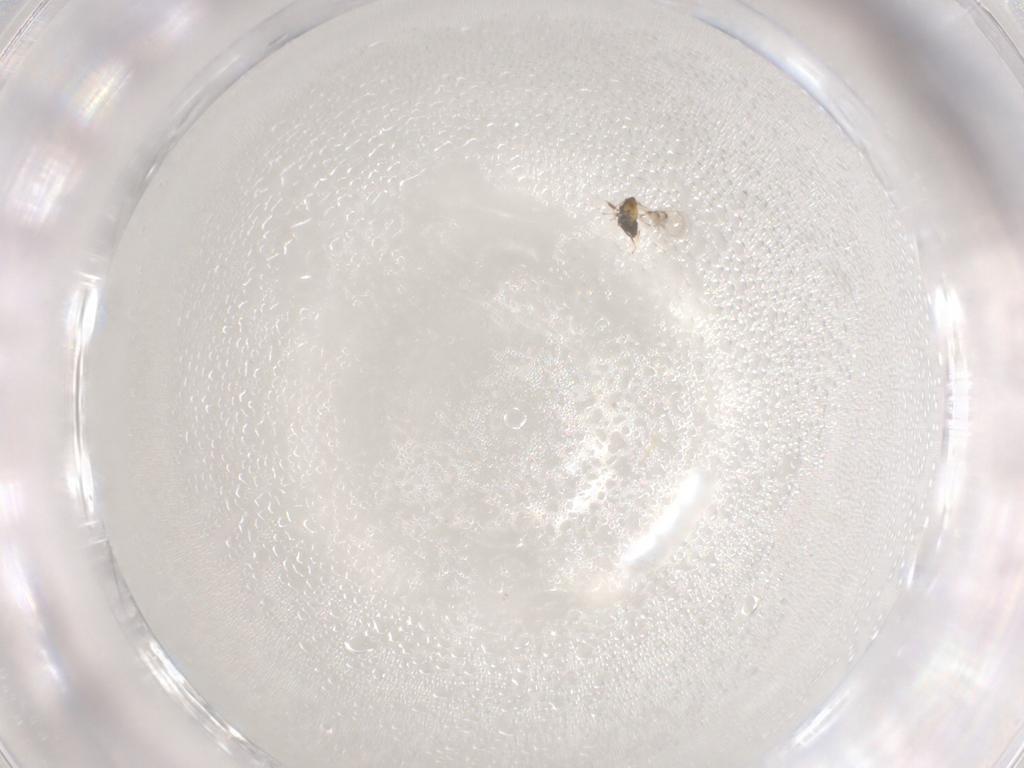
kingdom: Animalia
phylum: Arthropoda
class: Insecta
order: Hymenoptera
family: Trichogrammatidae
